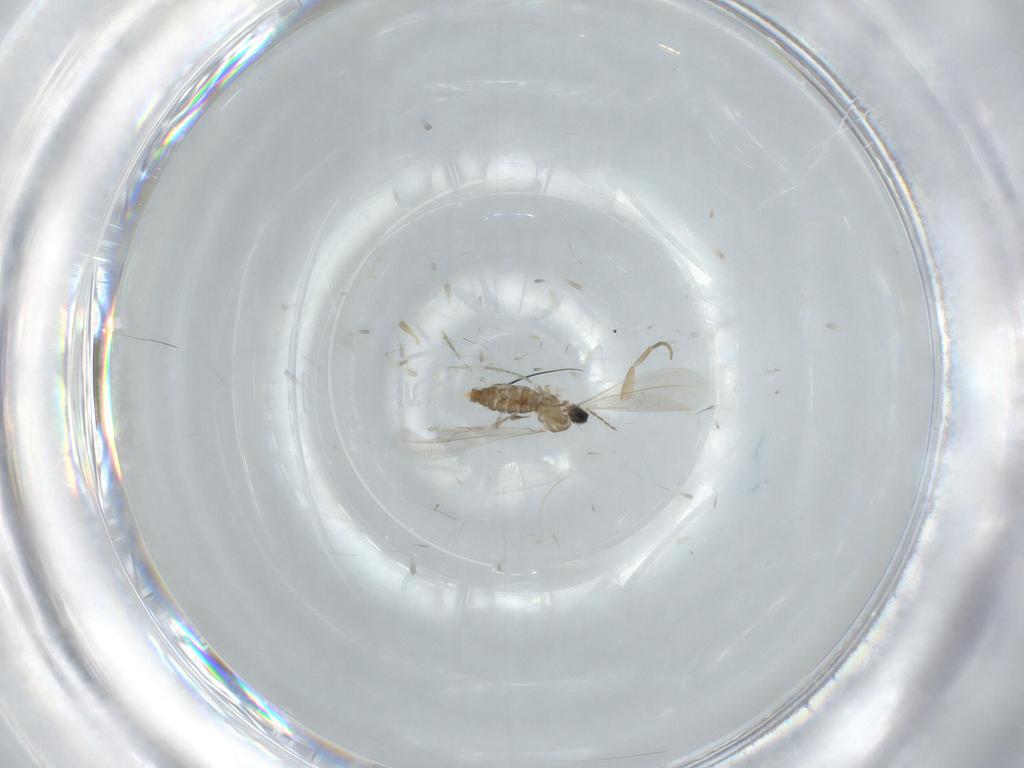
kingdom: Animalia
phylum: Arthropoda
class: Insecta
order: Diptera
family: Cecidomyiidae
